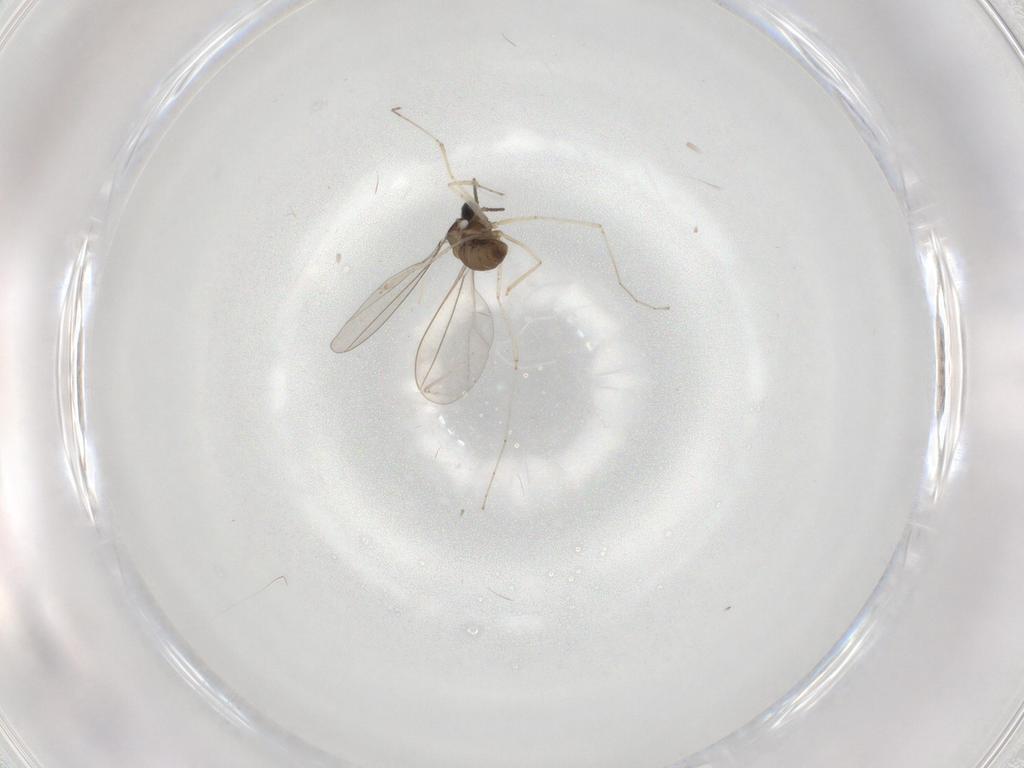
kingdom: Animalia
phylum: Arthropoda
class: Insecta
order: Diptera
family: Cecidomyiidae
